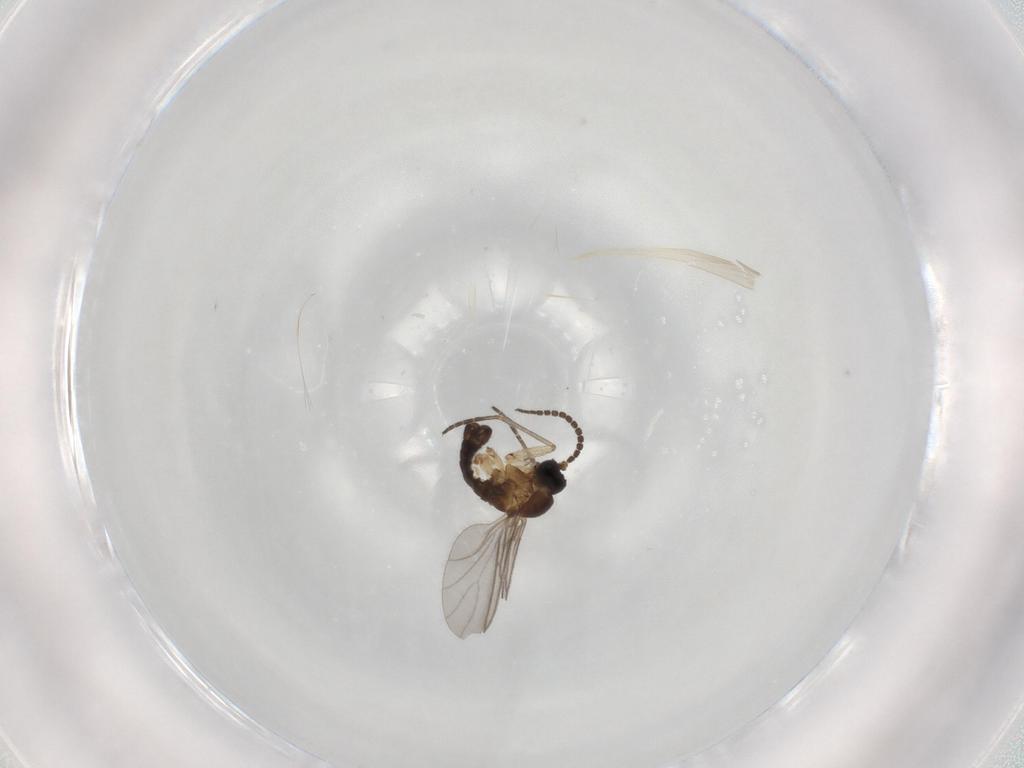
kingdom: Animalia
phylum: Arthropoda
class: Insecta
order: Diptera
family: Sciaridae
